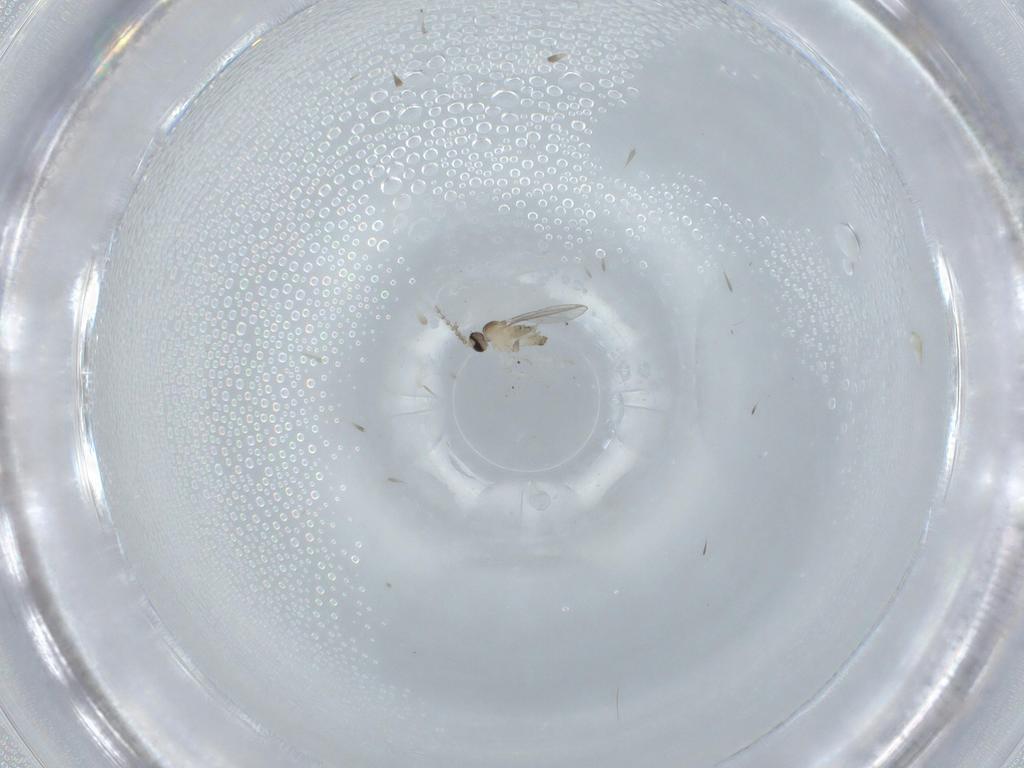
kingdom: Animalia
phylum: Arthropoda
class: Insecta
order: Diptera
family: Cecidomyiidae
